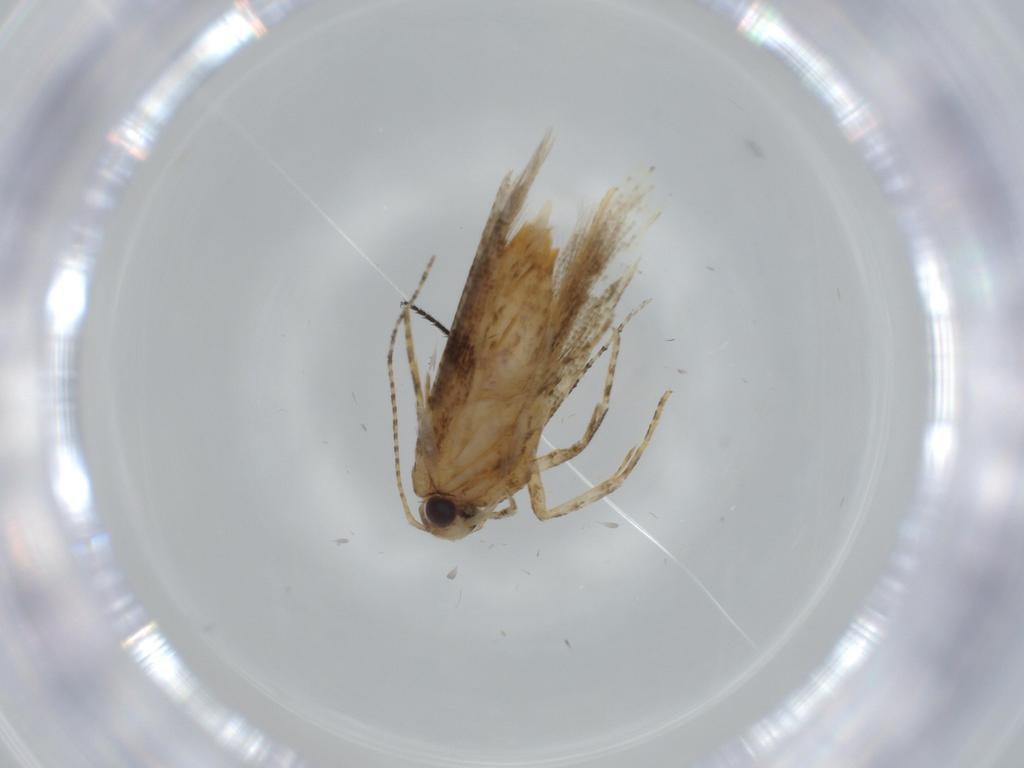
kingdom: Animalia
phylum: Arthropoda
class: Insecta
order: Lepidoptera
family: Gelechiidae
